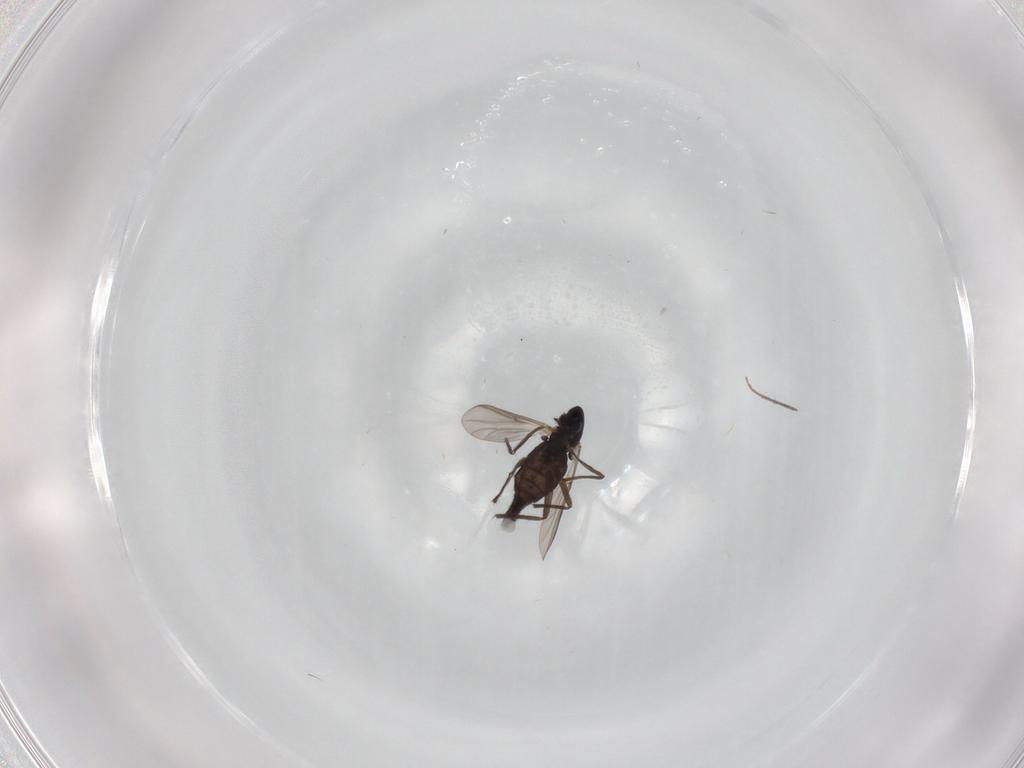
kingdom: Animalia
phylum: Arthropoda
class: Insecta
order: Diptera
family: Chironomidae
